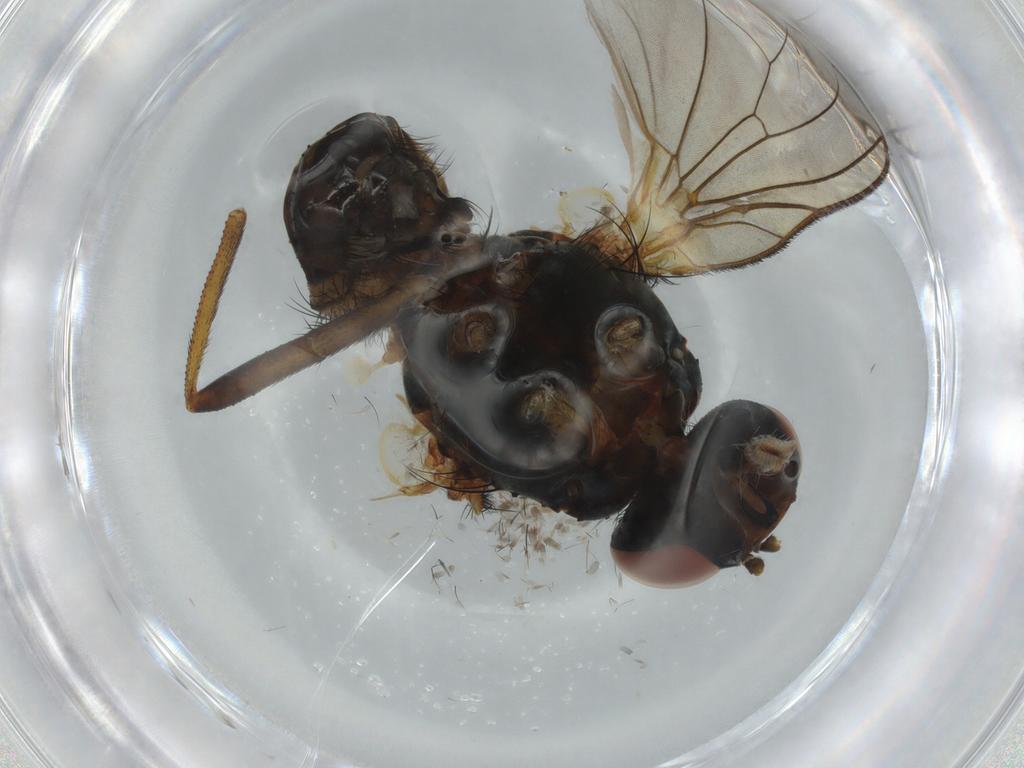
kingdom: Animalia
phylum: Arthropoda
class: Insecta
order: Diptera
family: Anthomyiidae
